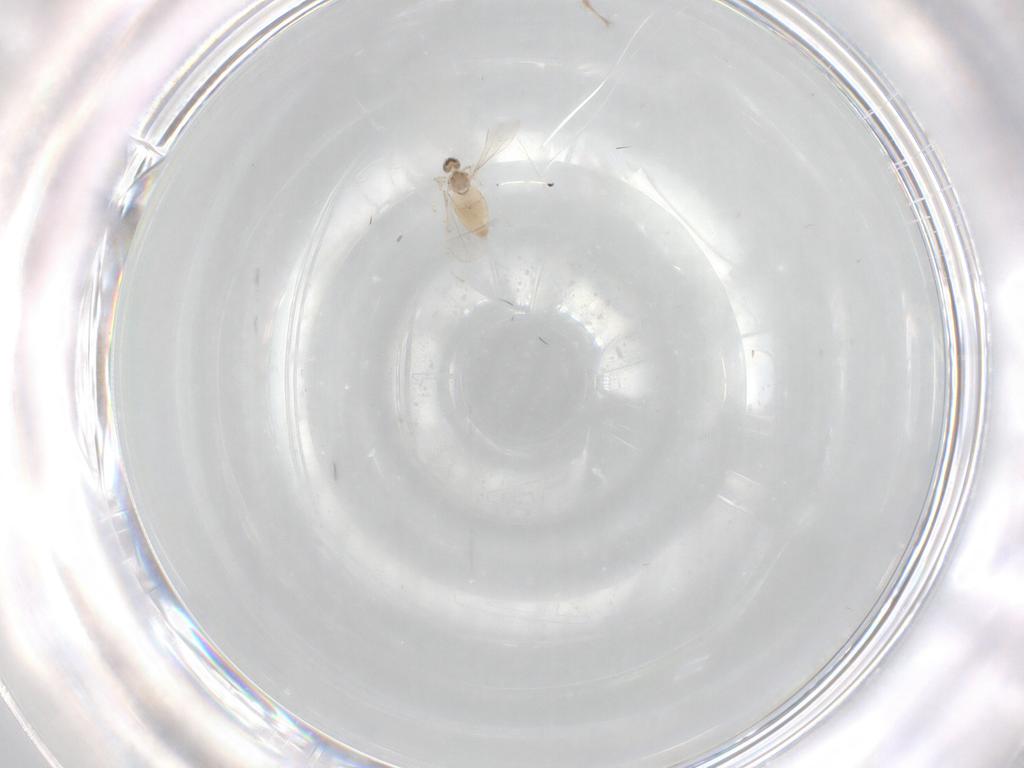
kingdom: Animalia
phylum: Arthropoda
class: Insecta
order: Diptera
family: Cecidomyiidae
